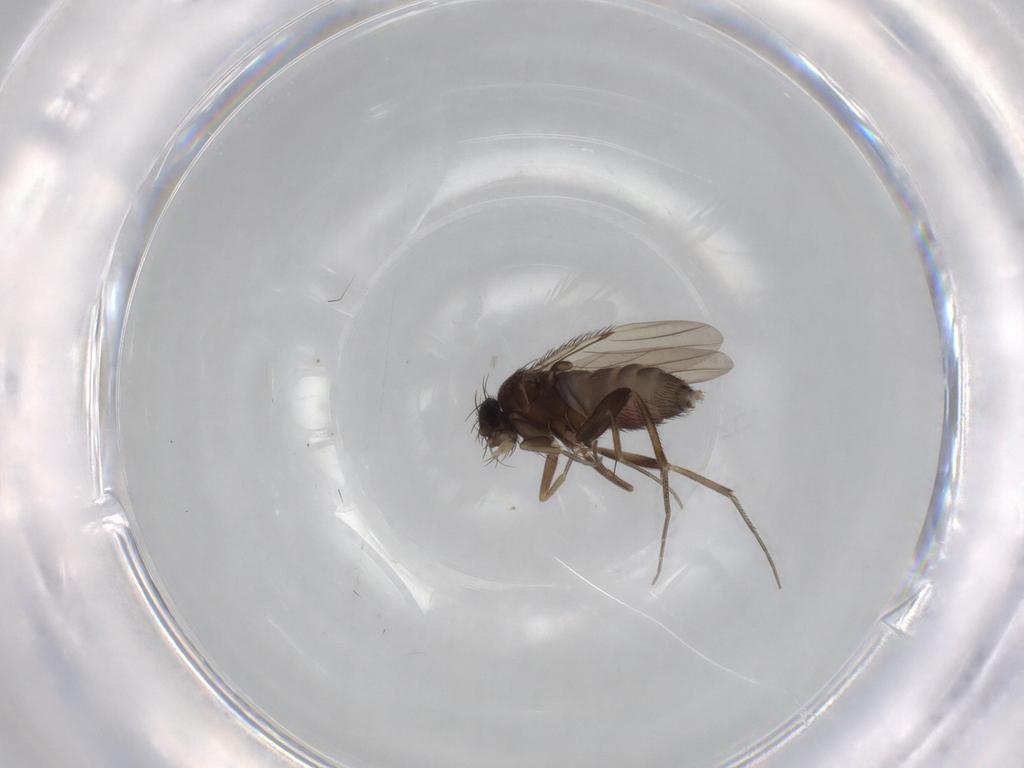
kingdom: Animalia
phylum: Arthropoda
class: Insecta
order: Diptera
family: Phoridae
